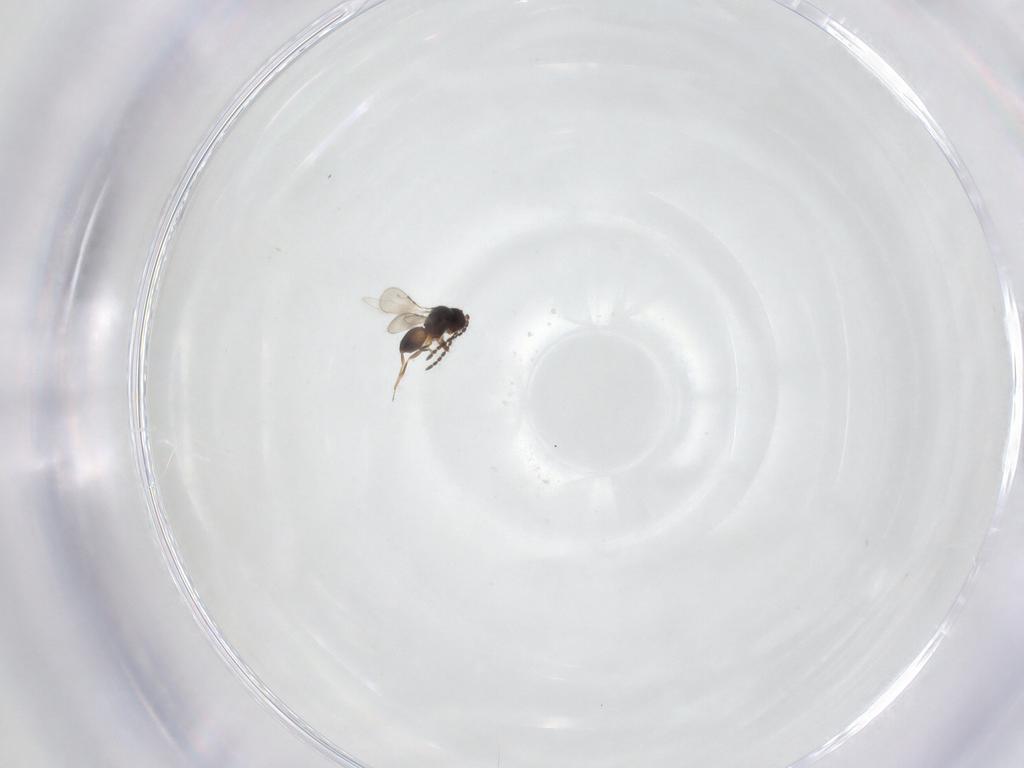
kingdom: Animalia
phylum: Arthropoda
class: Insecta
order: Hymenoptera
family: Ceraphronidae
